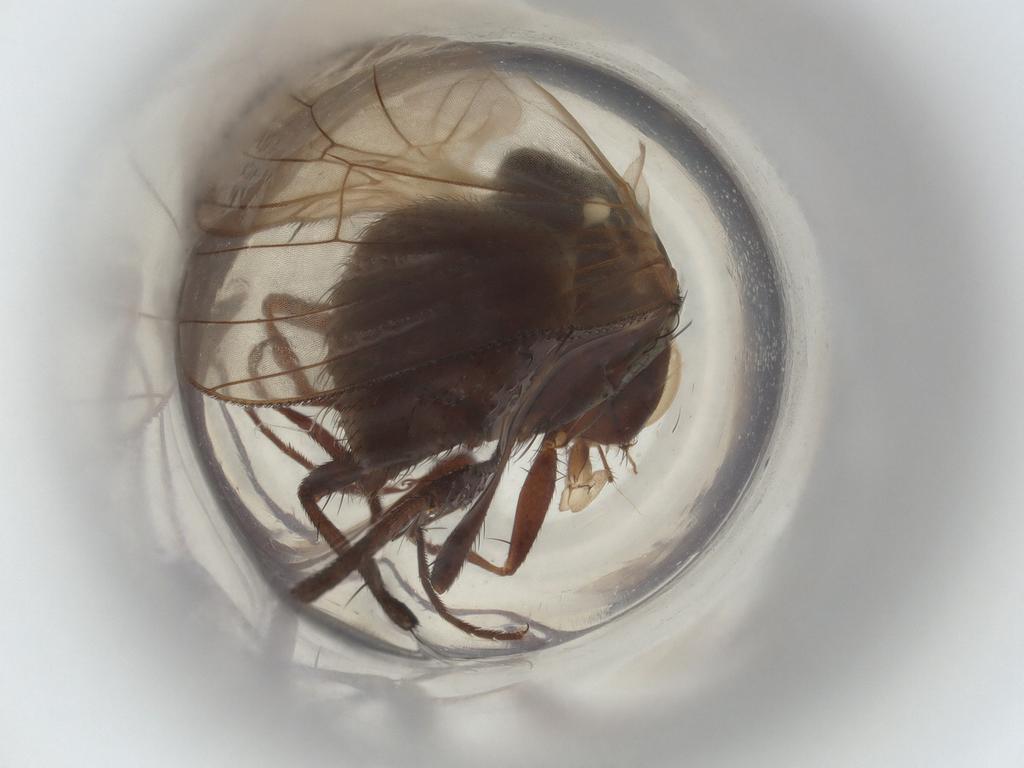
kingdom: Animalia
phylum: Arthropoda
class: Insecta
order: Diptera
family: Anthomyiidae
